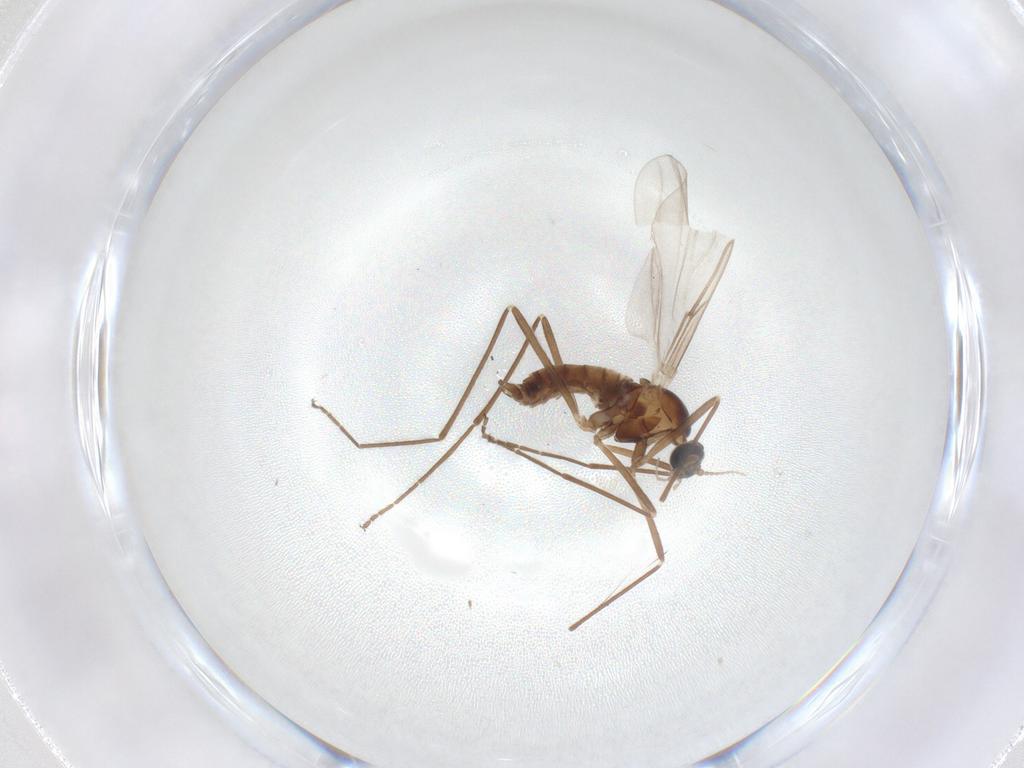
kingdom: Animalia
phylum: Arthropoda
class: Insecta
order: Diptera
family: Cecidomyiidae
